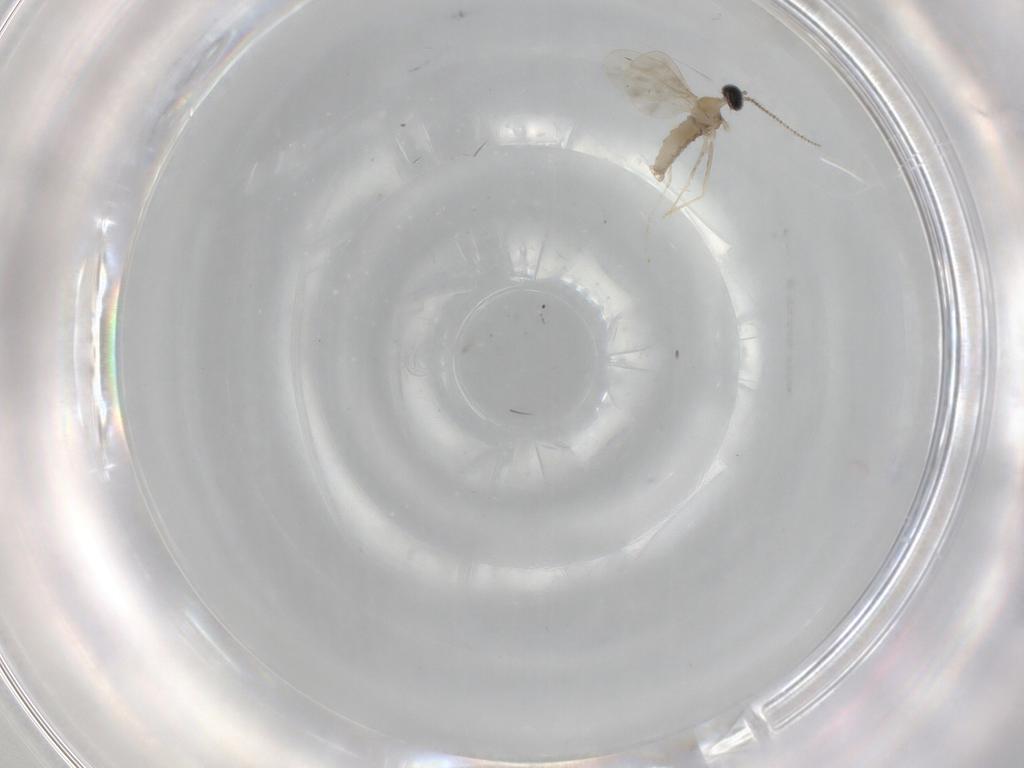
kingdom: Animalia
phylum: Arthropoda
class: Insecta
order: Diptera
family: Cecidomyiidae
